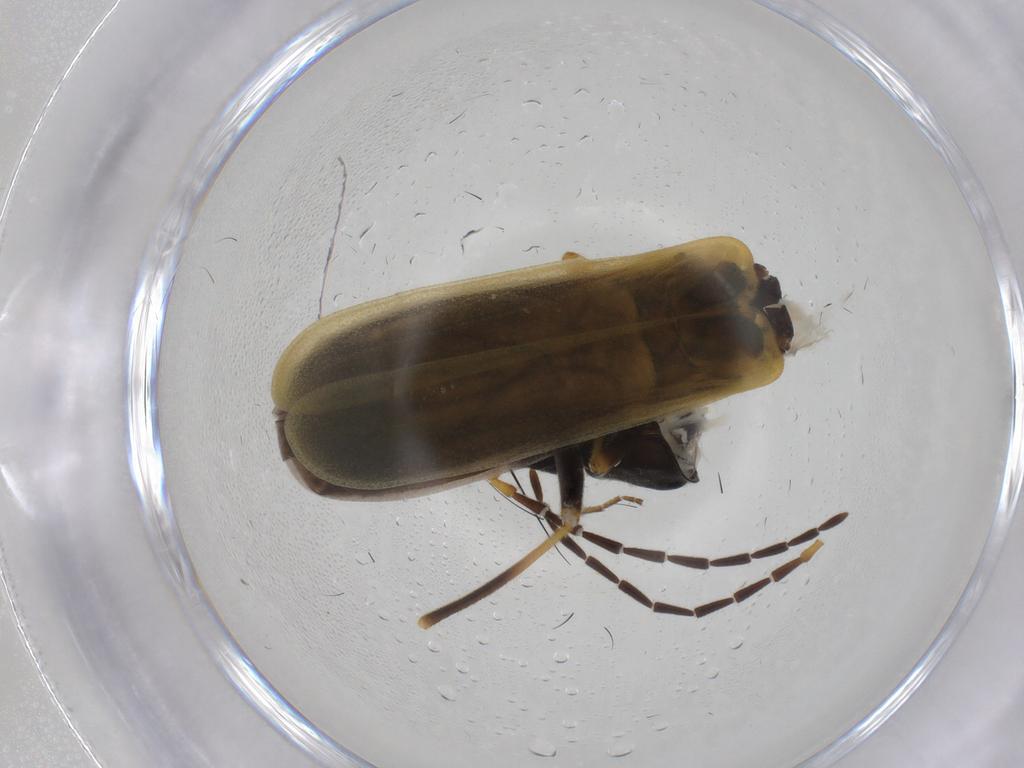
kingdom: Animalia
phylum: Arthropoda
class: Insecta
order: Coleoptera
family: Cantharidae
